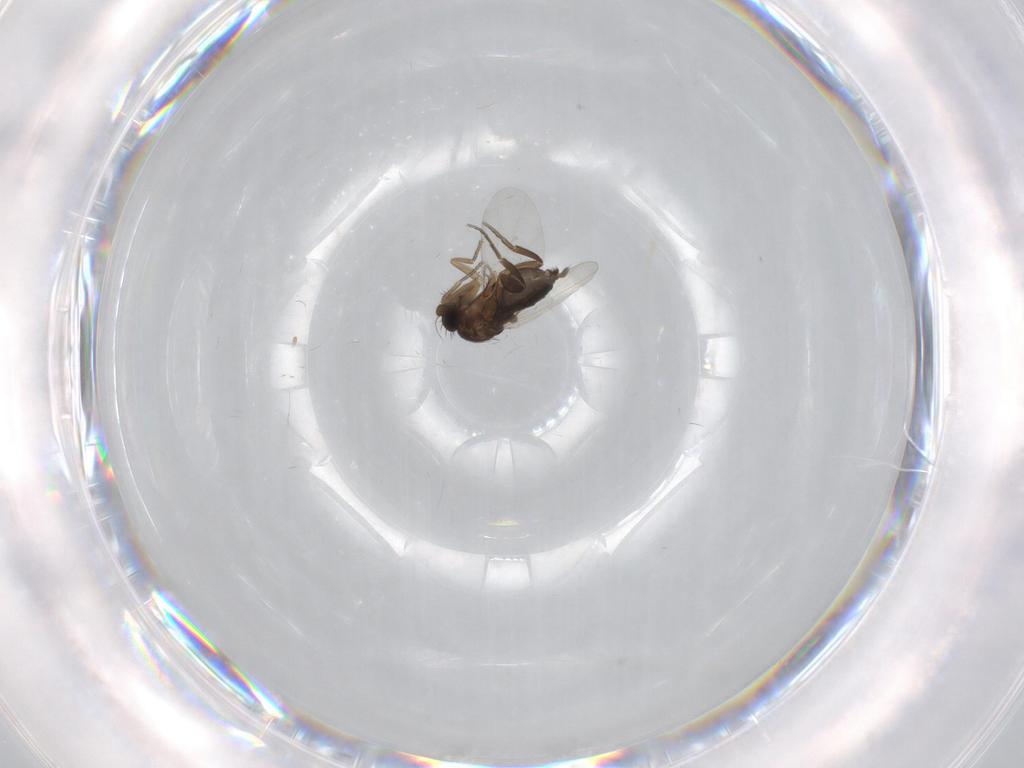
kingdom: Animalia
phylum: Arthropoda
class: Insecta
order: Diptera
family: Phoridae
